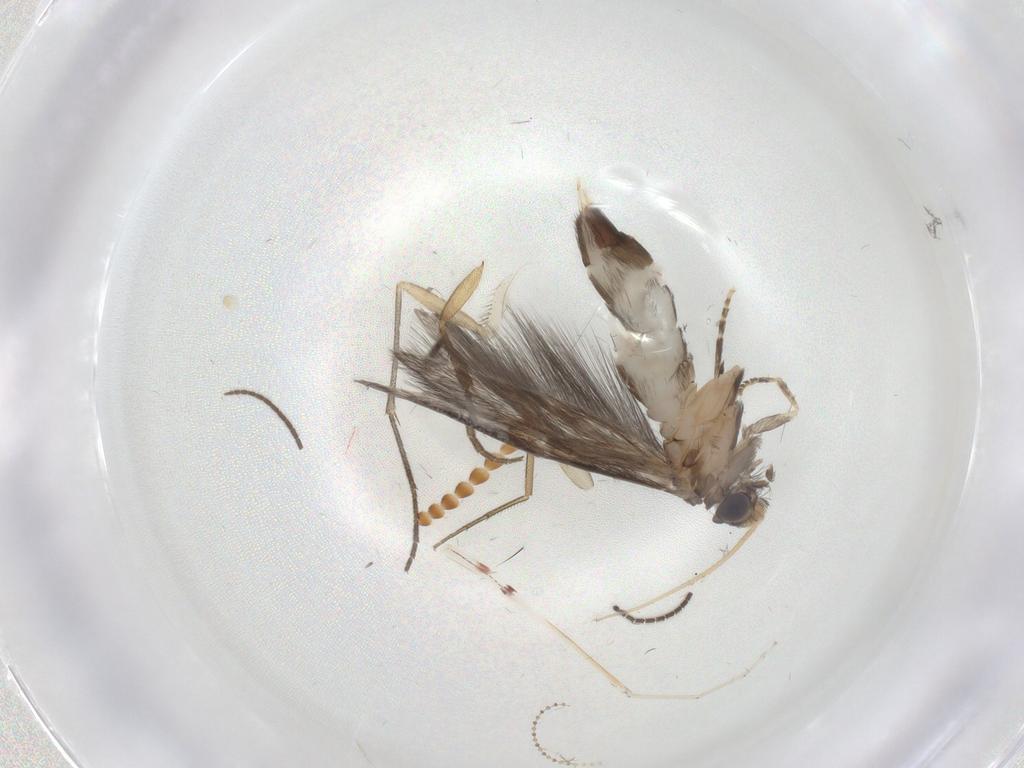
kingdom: Animalia
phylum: Arthropoda
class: Insecta
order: Trichoptera
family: Hydroptilidae
